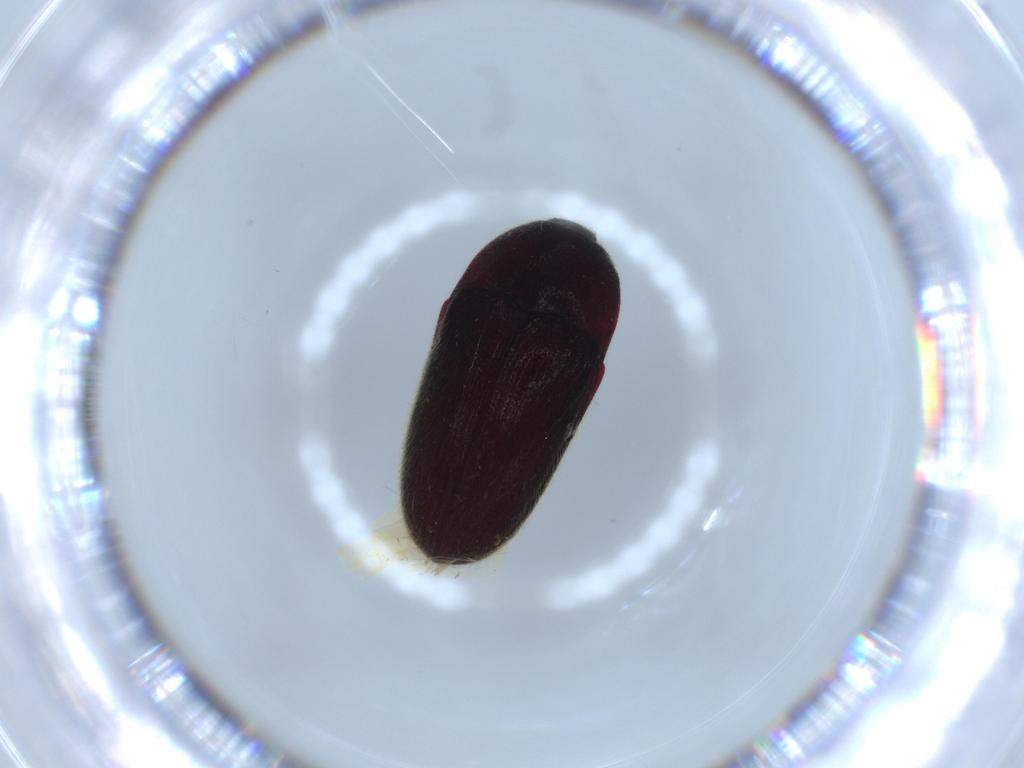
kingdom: Animalia
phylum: Arthropoda
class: Insecta
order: Coleoptera
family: Throscidae
